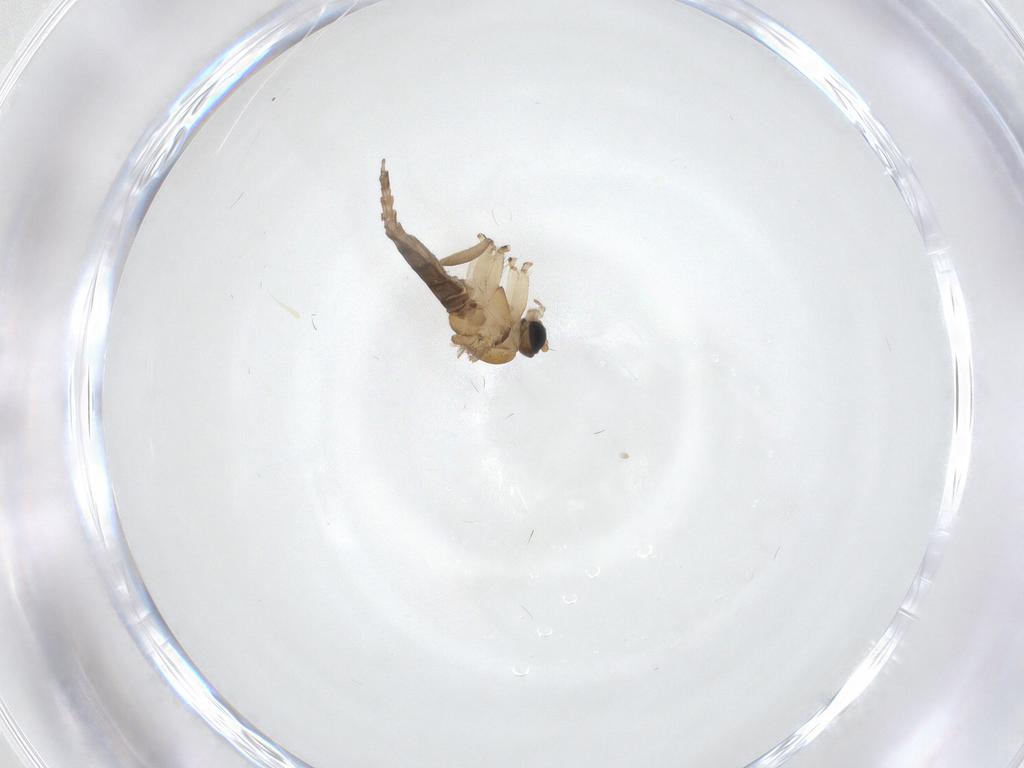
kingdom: Animalia
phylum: Arthropoda
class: Insecta
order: Diptera
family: Sciaridae
